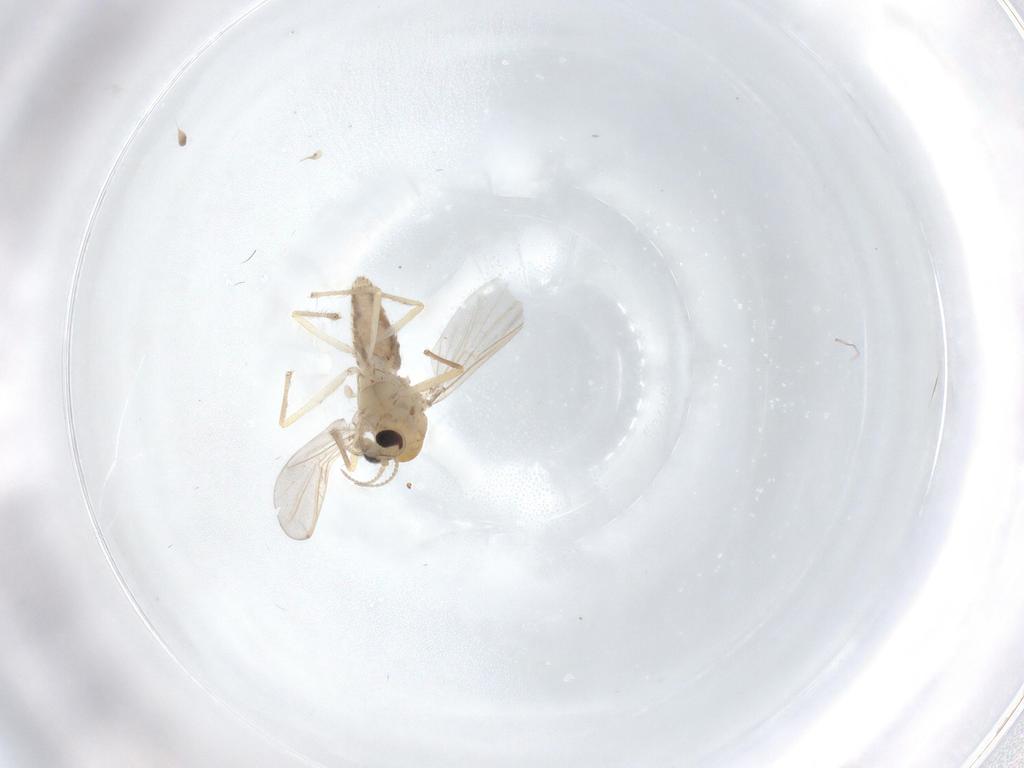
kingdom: Animalia
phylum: Arthropoda
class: Insecta
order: Diptera
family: Chironomidae
